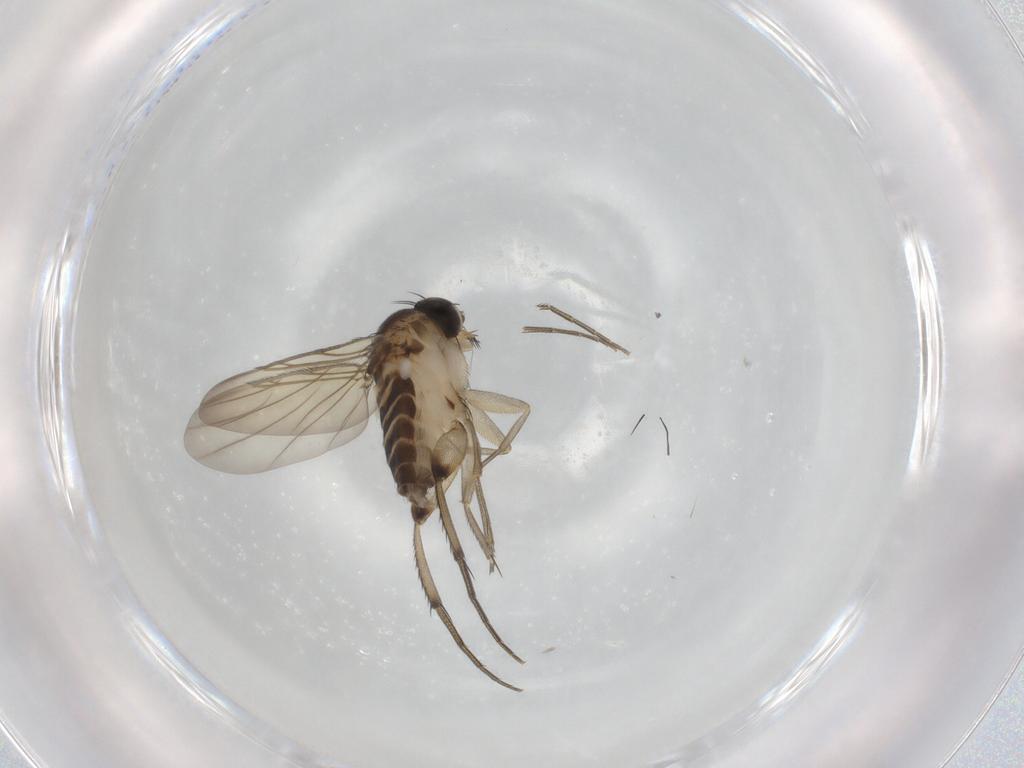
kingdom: Animalia
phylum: Arthropoda
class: Insecta
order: Diptera
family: Phoridae
